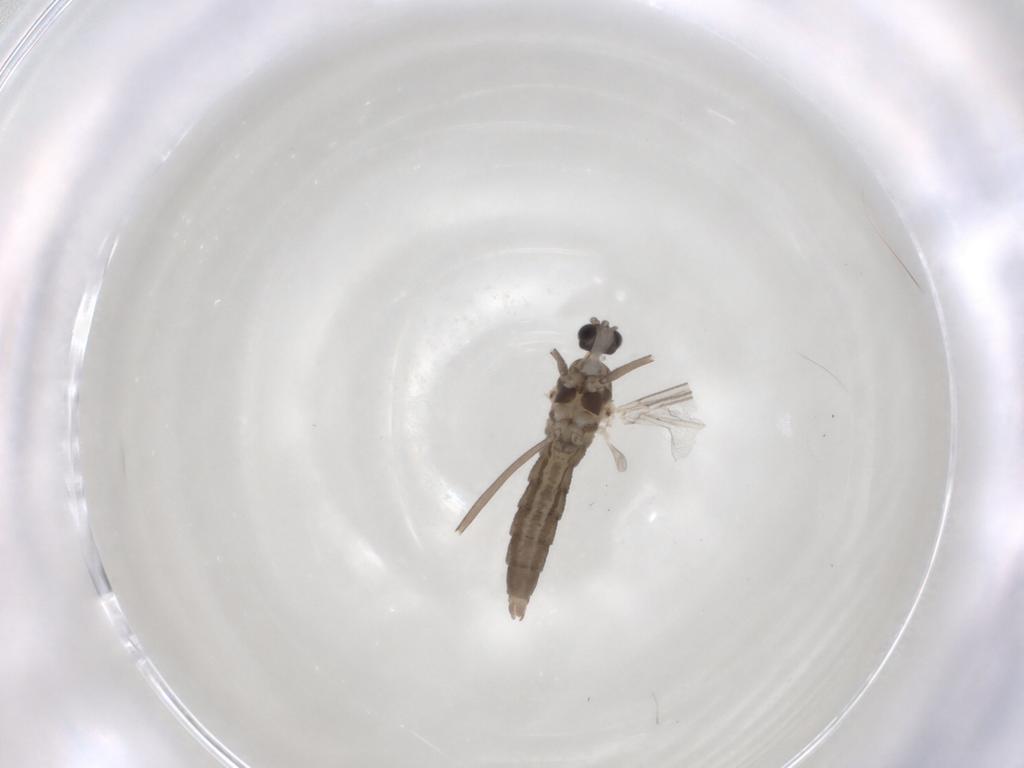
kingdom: Animalia
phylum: Arthropoda
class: Insecta
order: Diptera
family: Cecidomyiidae
